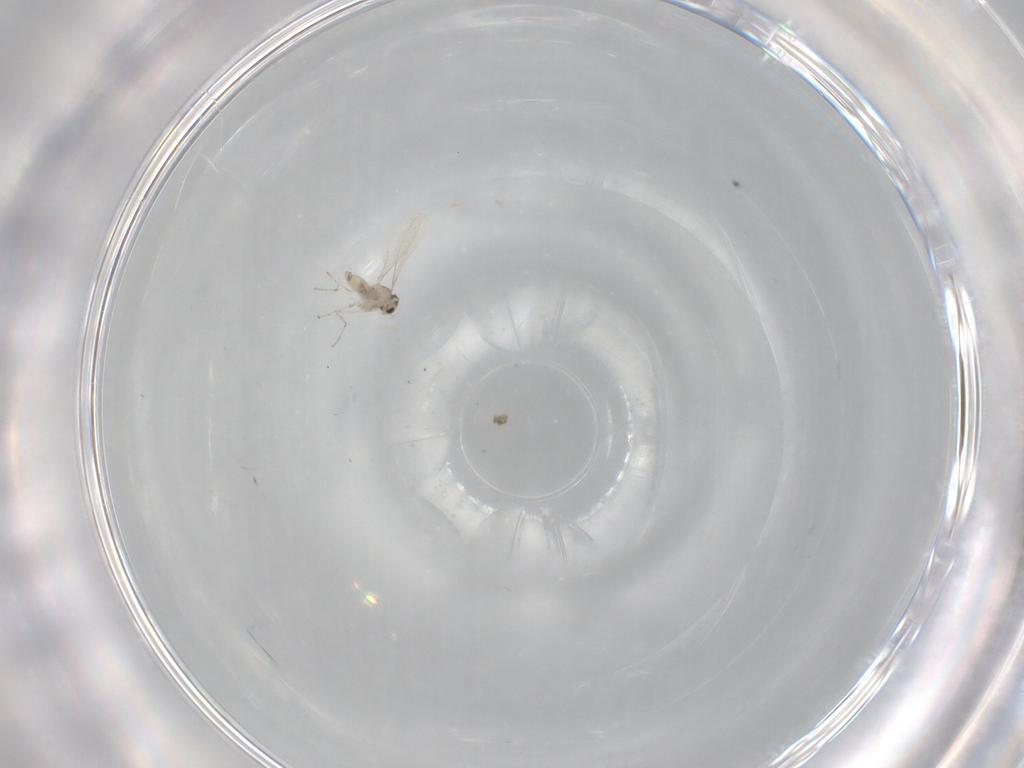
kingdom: Animalia
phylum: Arthropoda
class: Insecta
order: Diptera
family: Cecidomyiidae
